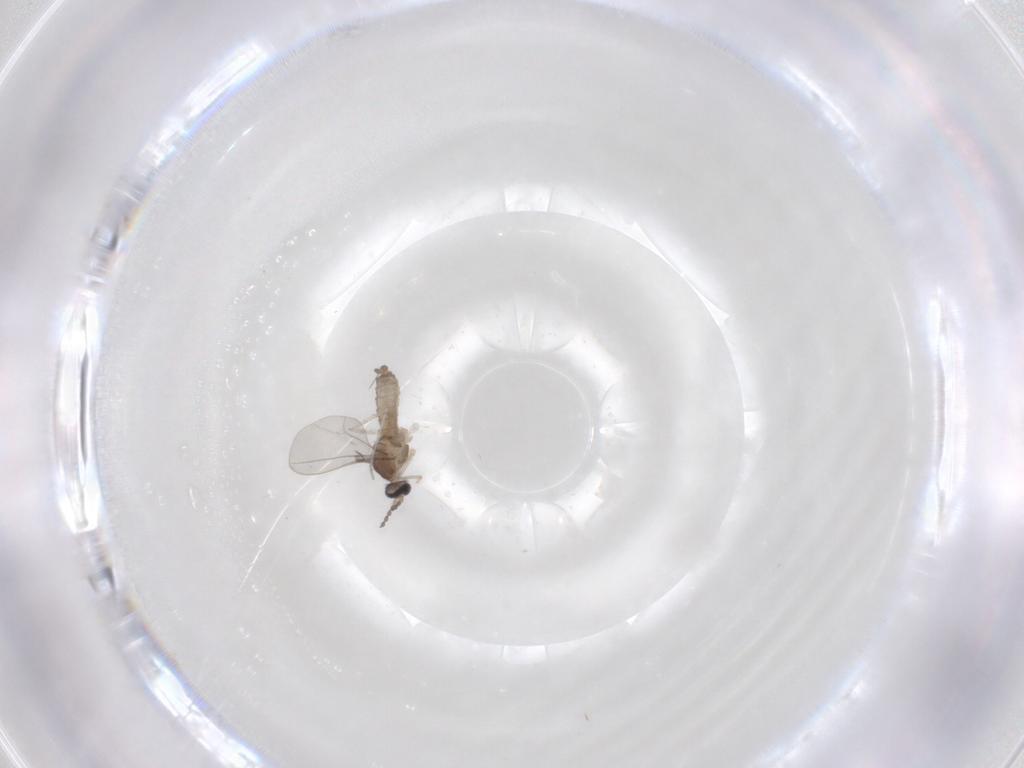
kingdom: Animalia
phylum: Arthropoda
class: Insecta
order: Diptera
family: Cecidomyiidae
